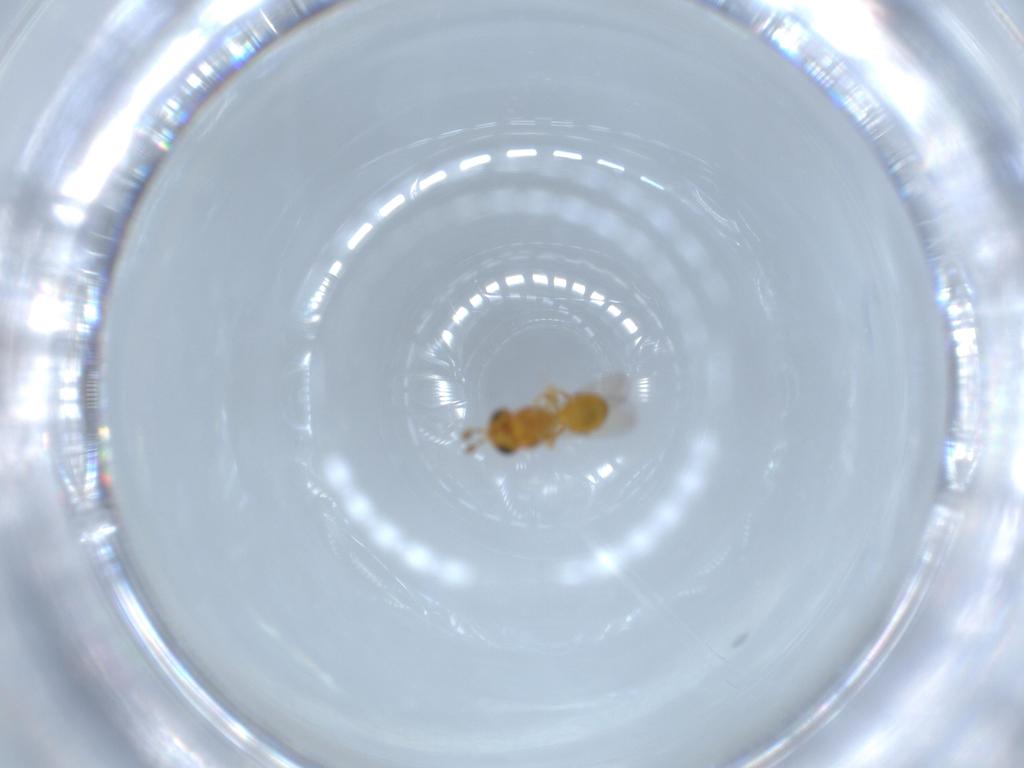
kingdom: Animalia
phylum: Arthropoda
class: Insecta
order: Hymenoptera
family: Scelionidae
